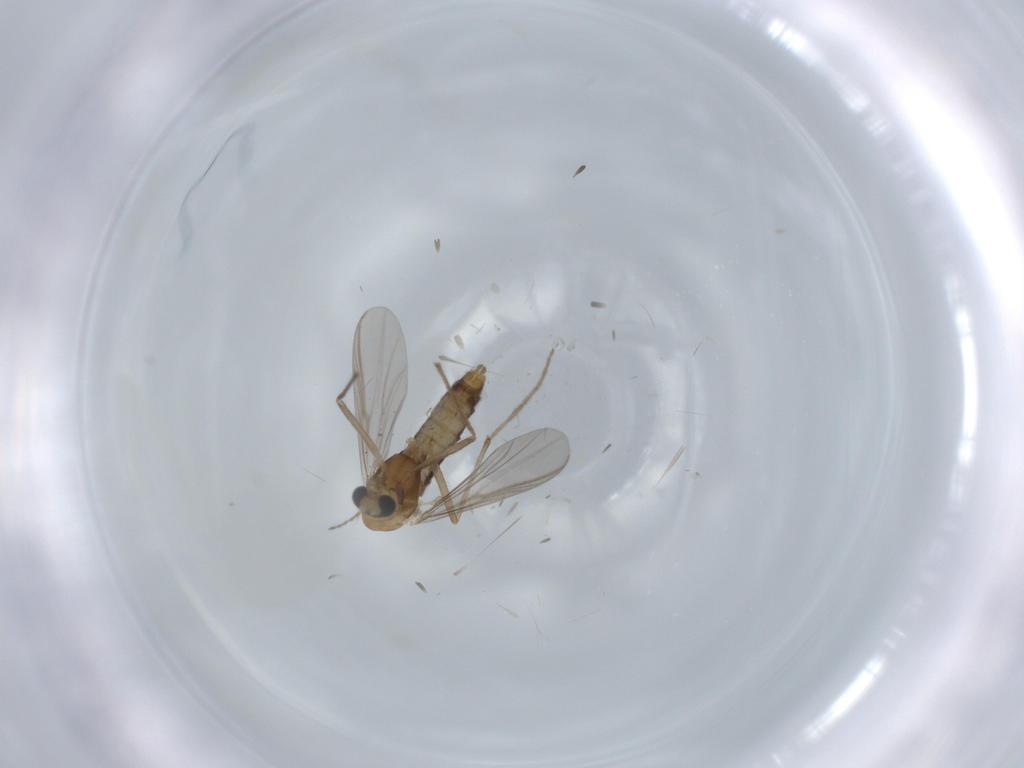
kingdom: Animalia
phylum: Arthropoda
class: Insecta
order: Diptera
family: Chironomidae
